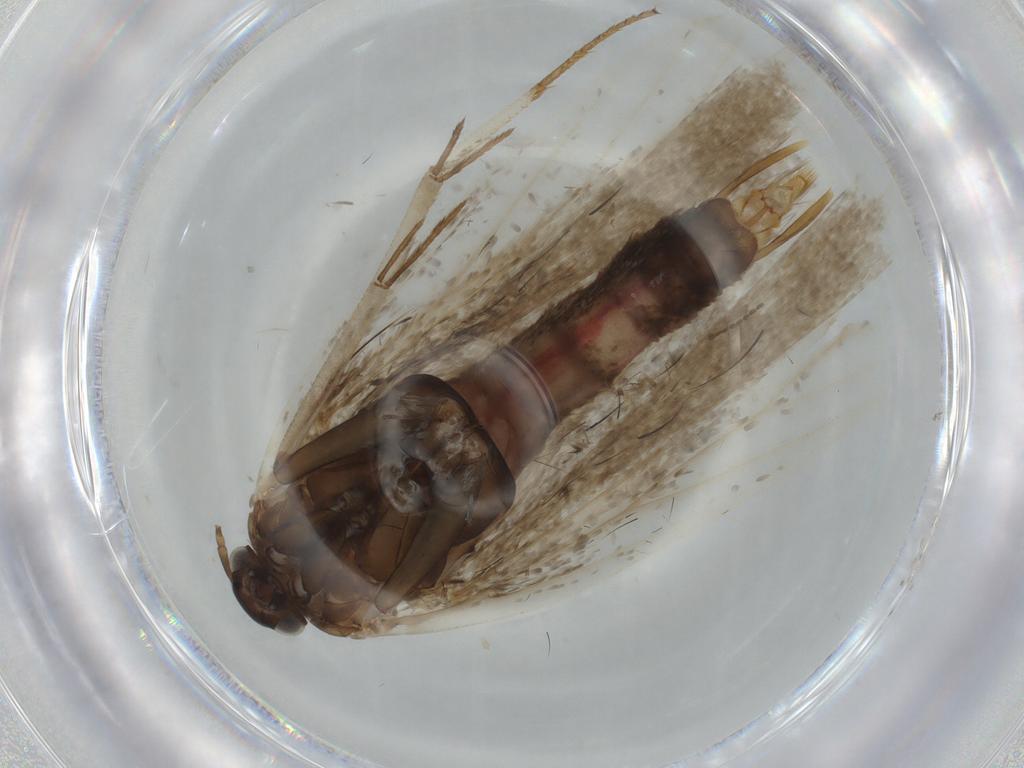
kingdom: Animalia
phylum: Arthropoda
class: Insecta
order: Lepidoptera
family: Gelechiidae
